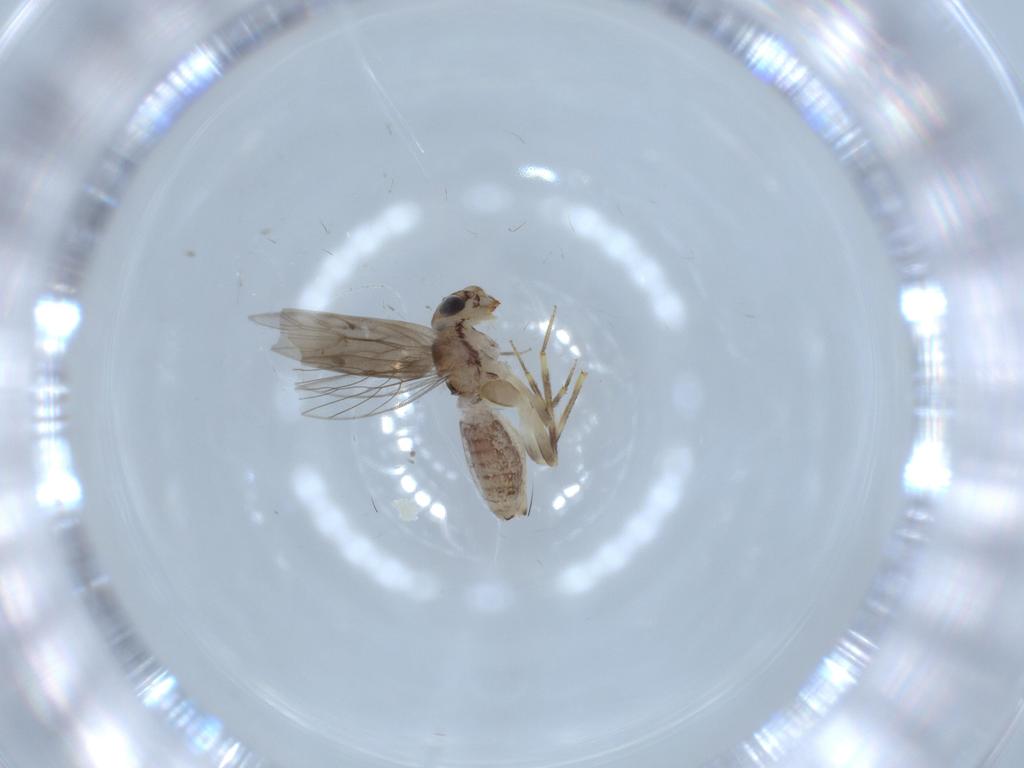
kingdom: Animalia
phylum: Arthropoda
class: Insecta
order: Psocodea
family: Lepidopsocidae
